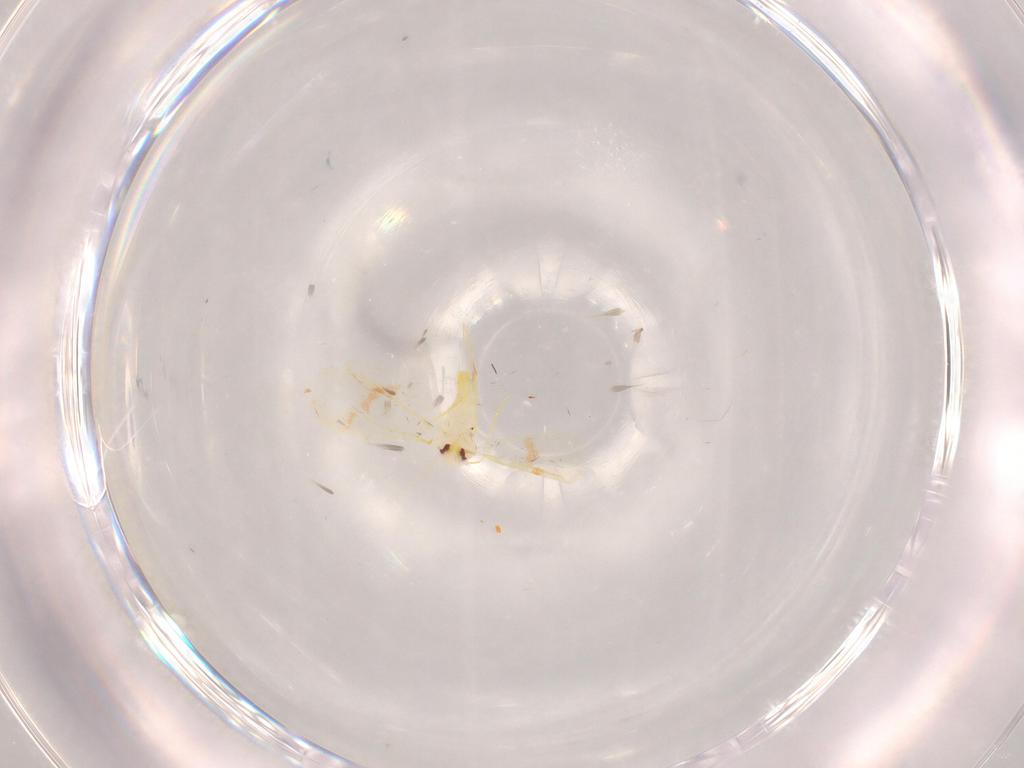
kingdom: Animalia
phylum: Arthropoda
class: Insecta
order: Hemiptera
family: Aleyrodidae
